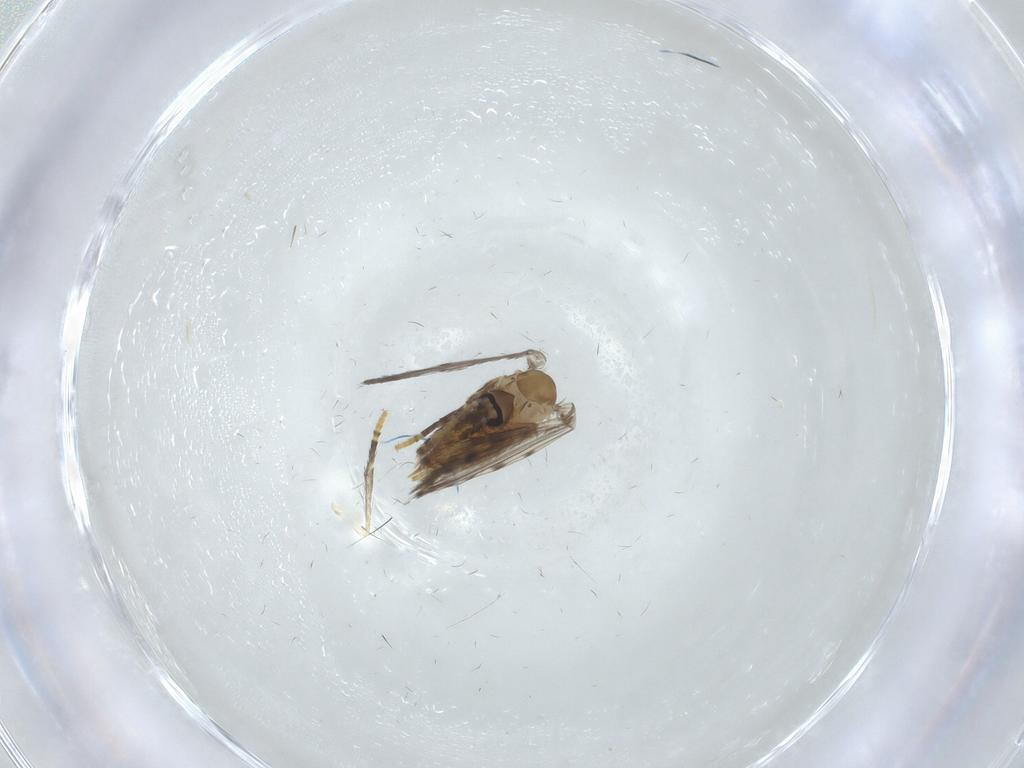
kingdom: Animalia
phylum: Arthropoda
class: Insecta
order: Diptera
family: Psychodidae
